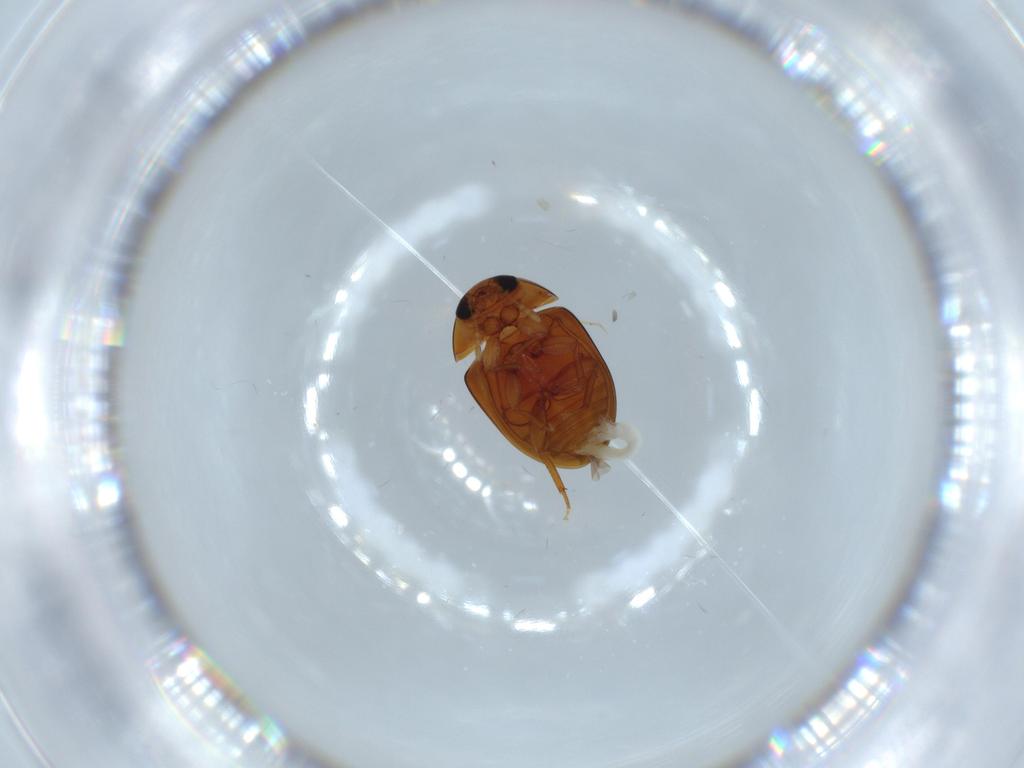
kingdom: Animalia
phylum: Arthropoda
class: Insecta
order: Coleoptera
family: Phalacridae
